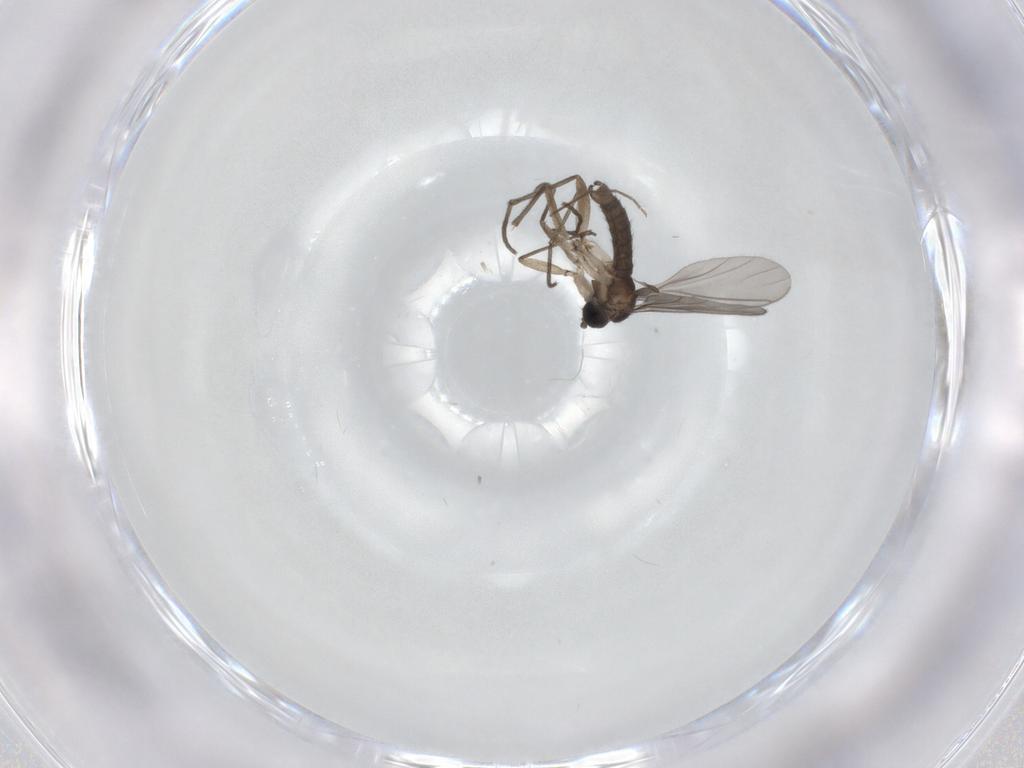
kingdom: Animalia
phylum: Arthropoda
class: Insecta
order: Diptera
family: Sciaridae
